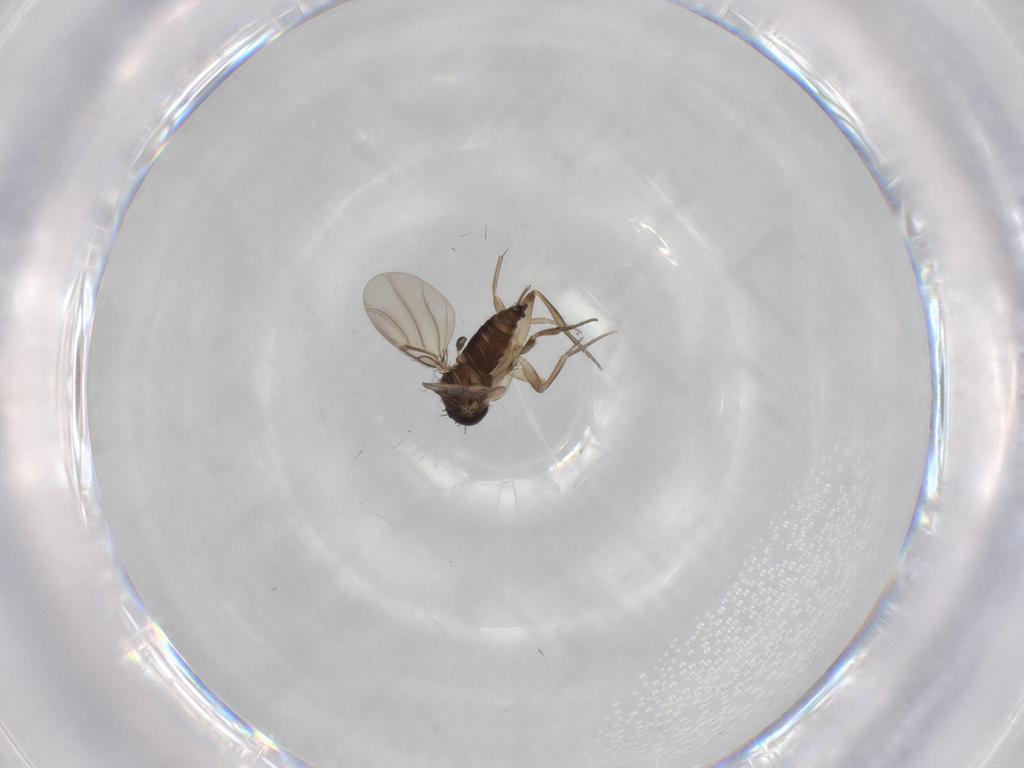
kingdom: Animalia
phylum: Arthropoda
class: Insecta
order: Diptera
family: Phoridae
